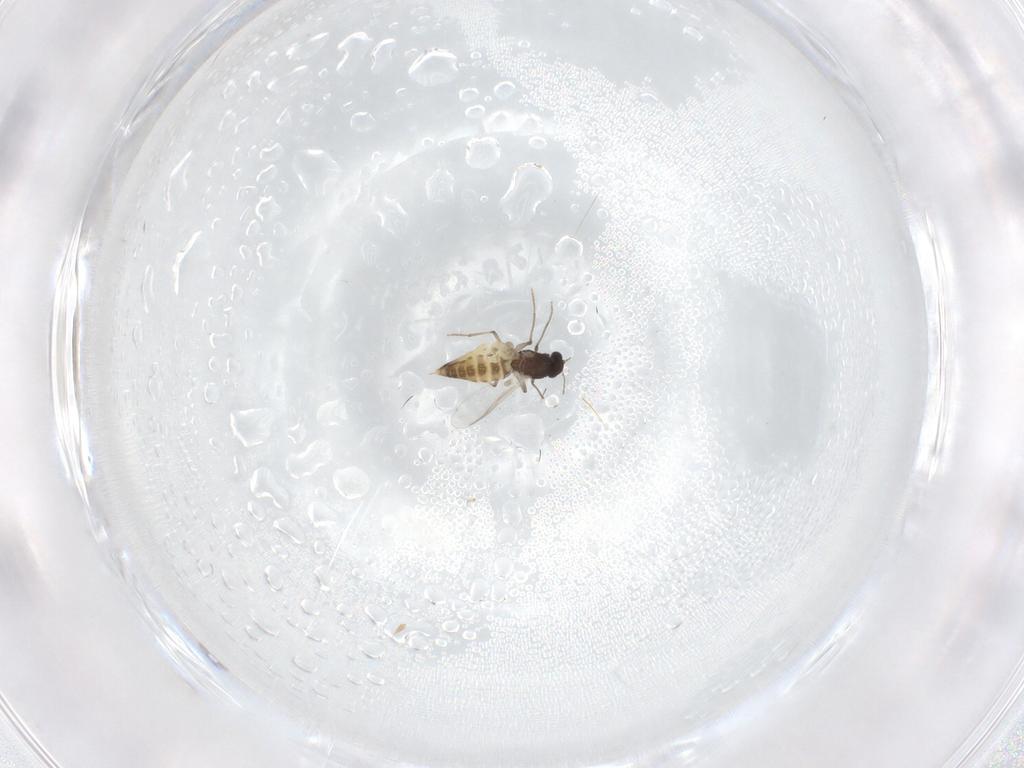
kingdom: Animalia
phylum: Arthropoda
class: Insecta
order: Diptera
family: Chironomidae
